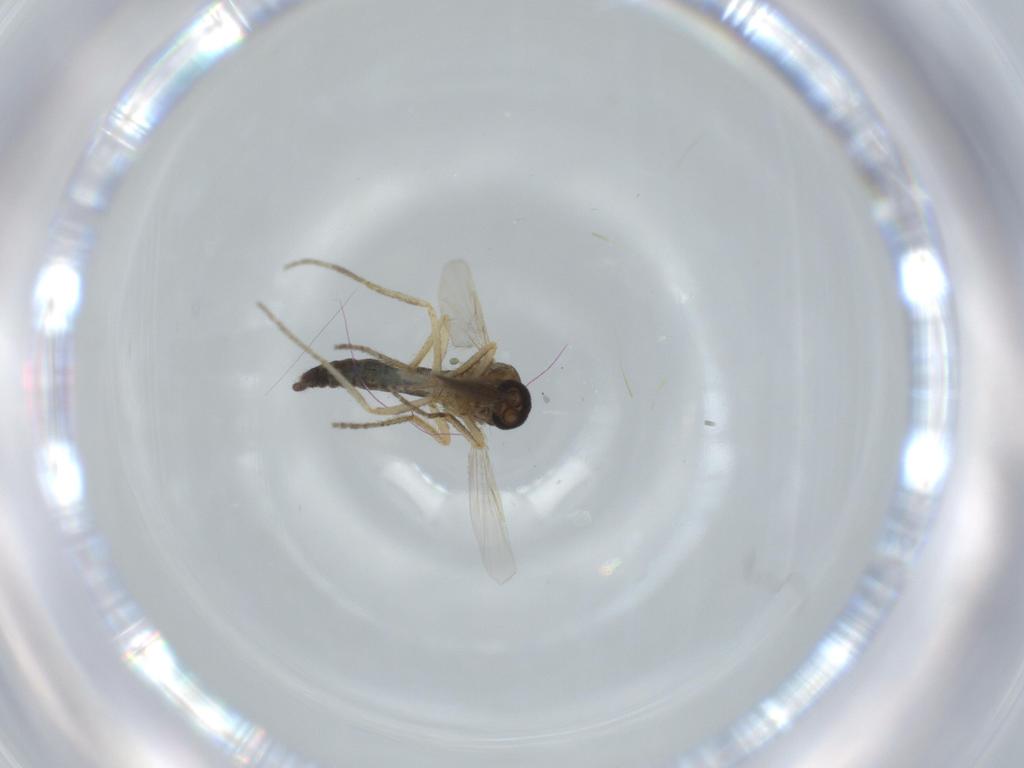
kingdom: Animalia
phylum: Arthropoda
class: Insecta
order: Diptera
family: Ceratopogonidae
